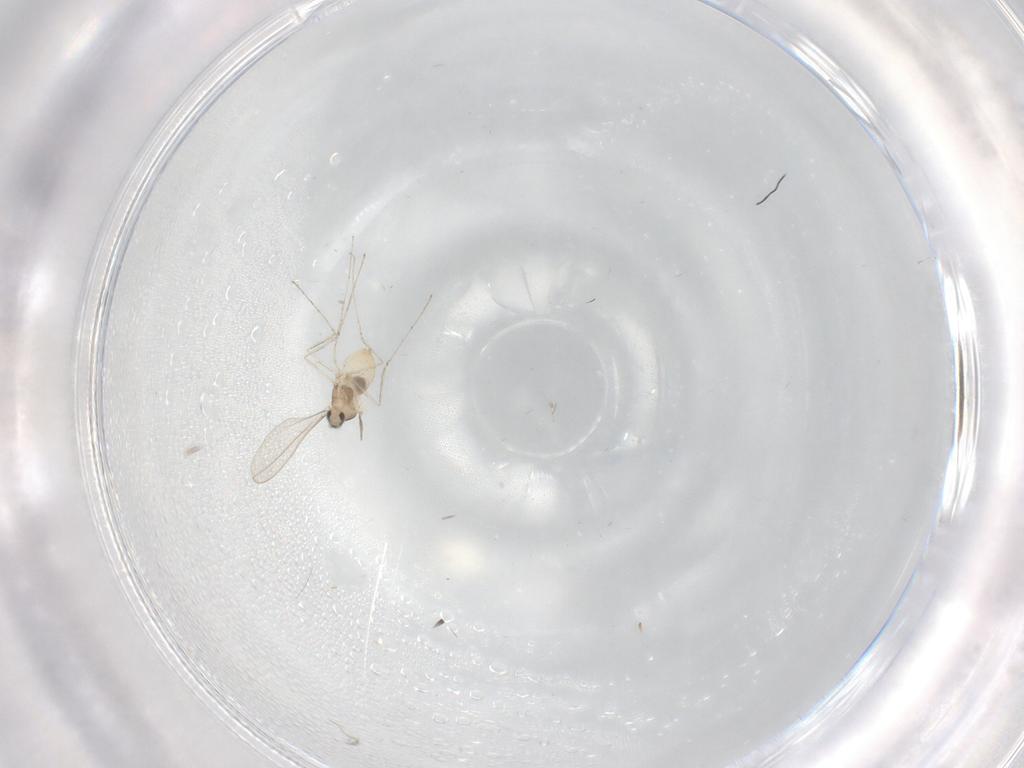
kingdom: Animalia
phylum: Arthropoda
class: Insecta
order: Diptera
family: Cecidomyiidae
